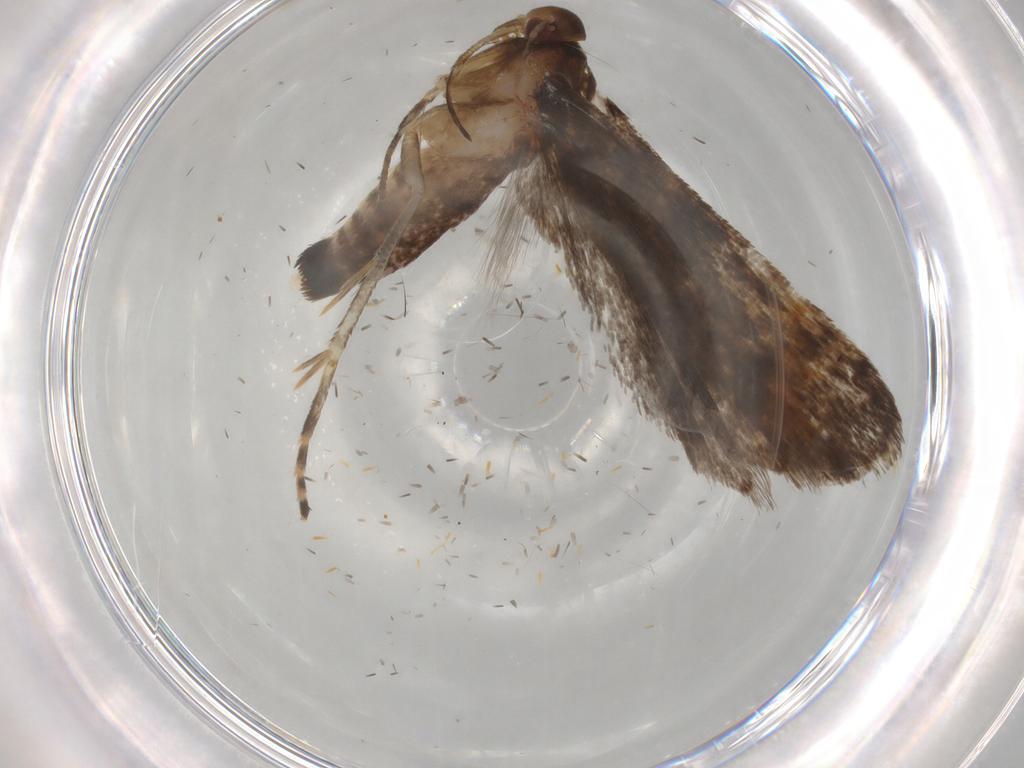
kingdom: Animalia
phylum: Arthropoda
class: Insecta
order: Lepidoptera
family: Gelechiidae
